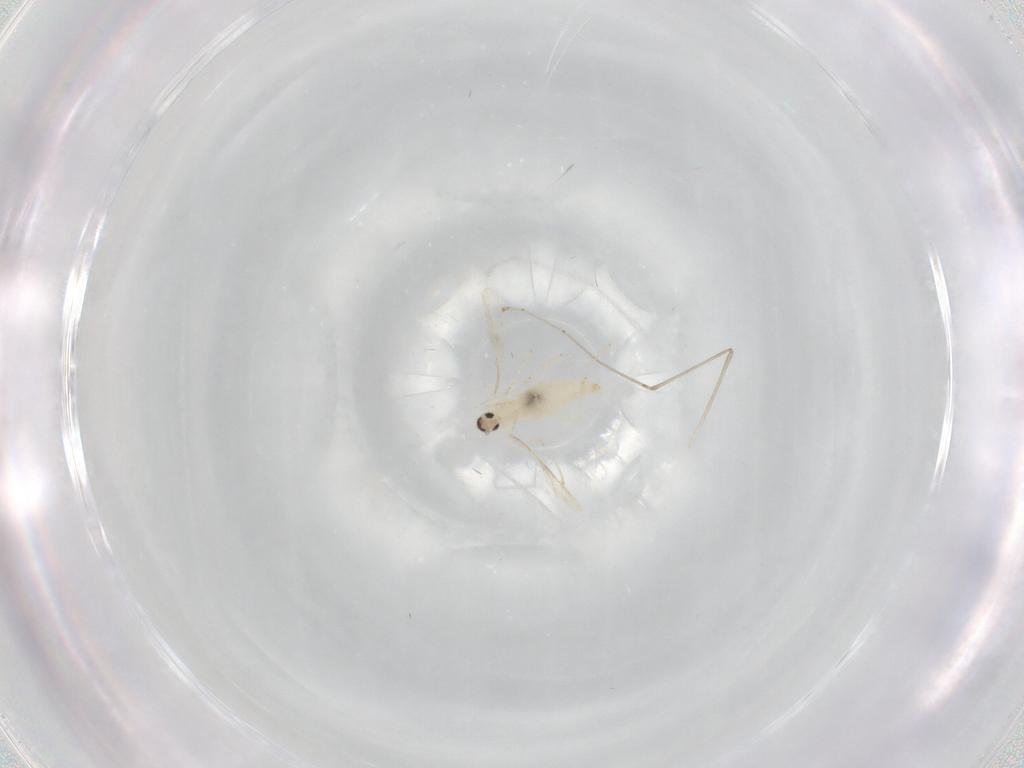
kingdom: Animalia
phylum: Arthropoda
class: Insecta
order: Diptera
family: Cecidomyiidae
